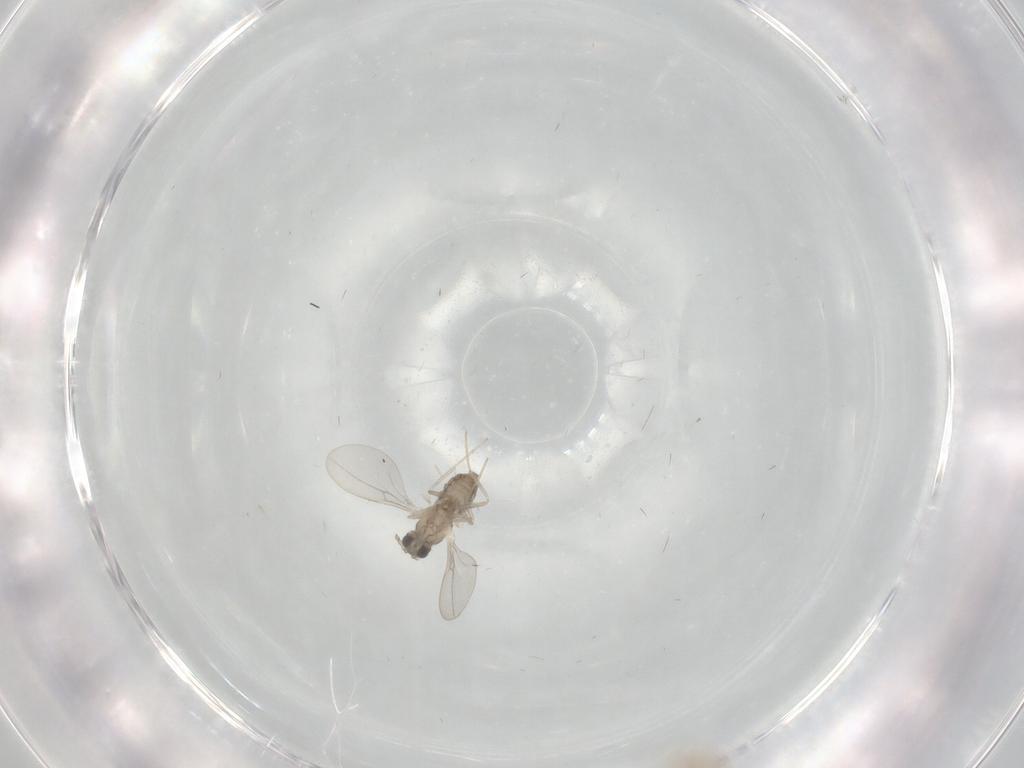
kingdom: Animalia
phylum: Arthropoda
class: Insecta
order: Diptera
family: Cecidomyiidae
